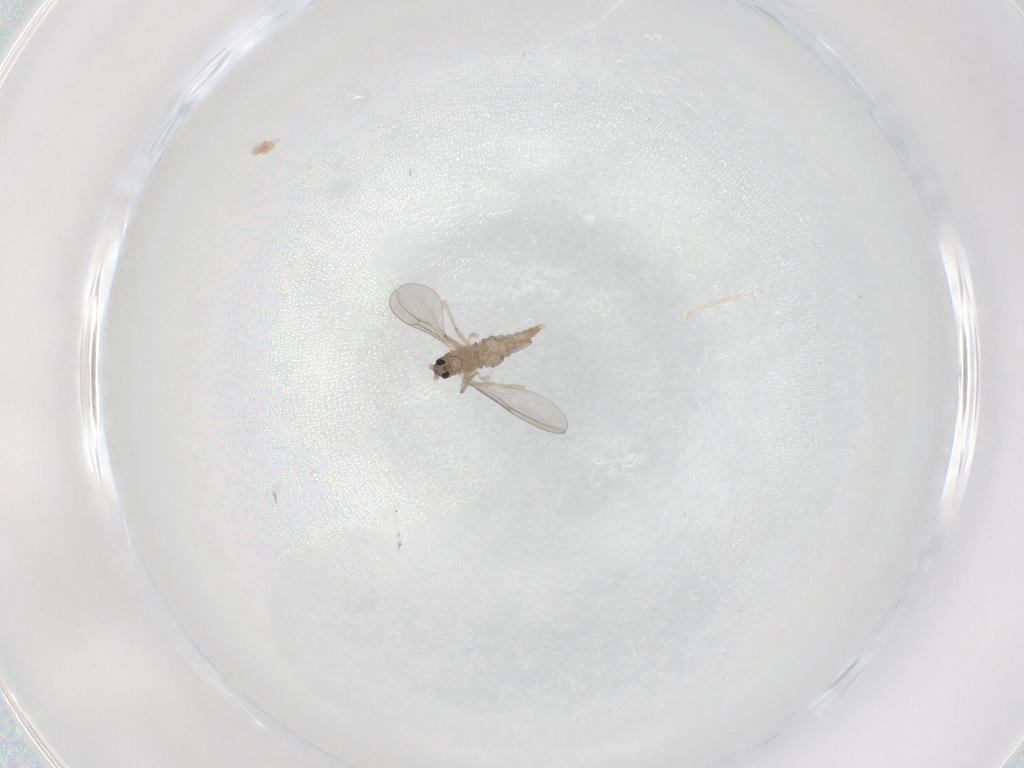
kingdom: Animalia
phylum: Arthropoda
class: Insecta
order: Diptera
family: Cecidomyiidae
